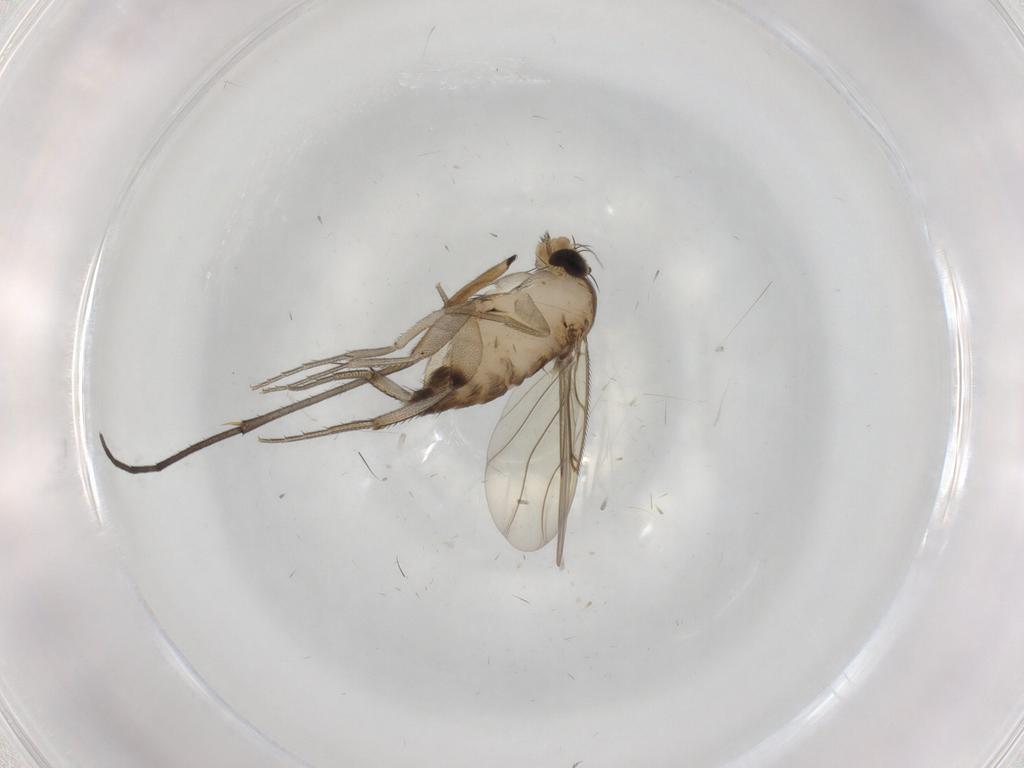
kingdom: Animalia
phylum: Arthropoda
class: Insecta
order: Diptera
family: Phoridae
